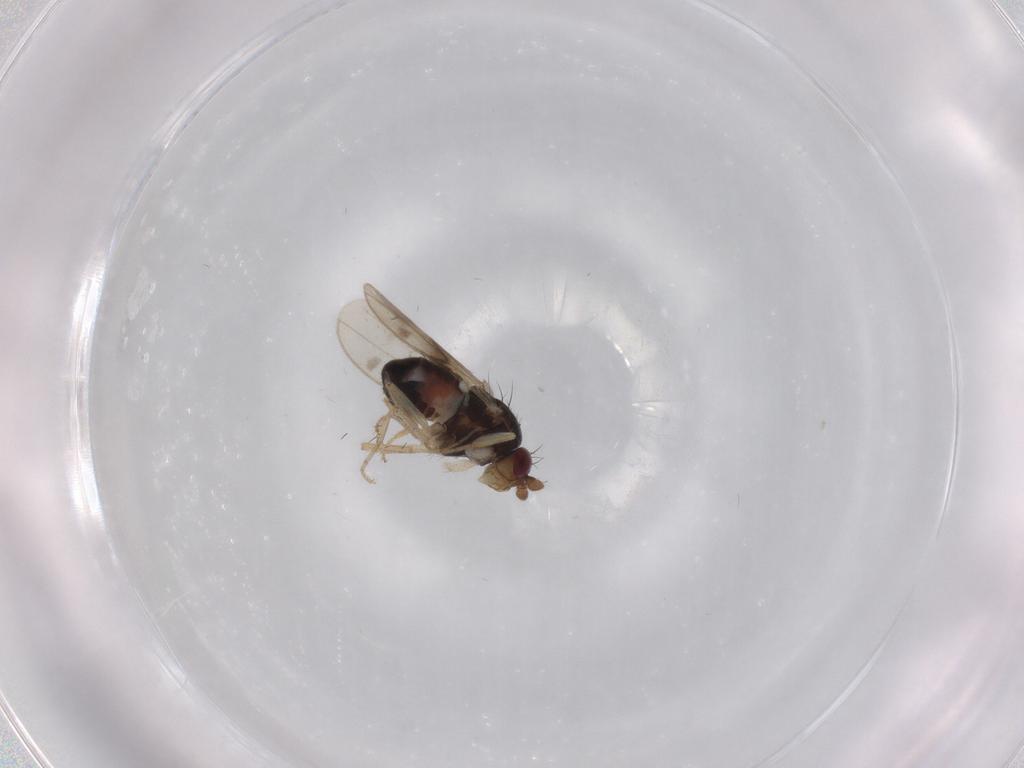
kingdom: Animalia
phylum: Arthropoda
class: Insecta
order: Diptera
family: Sphaeroceridae
